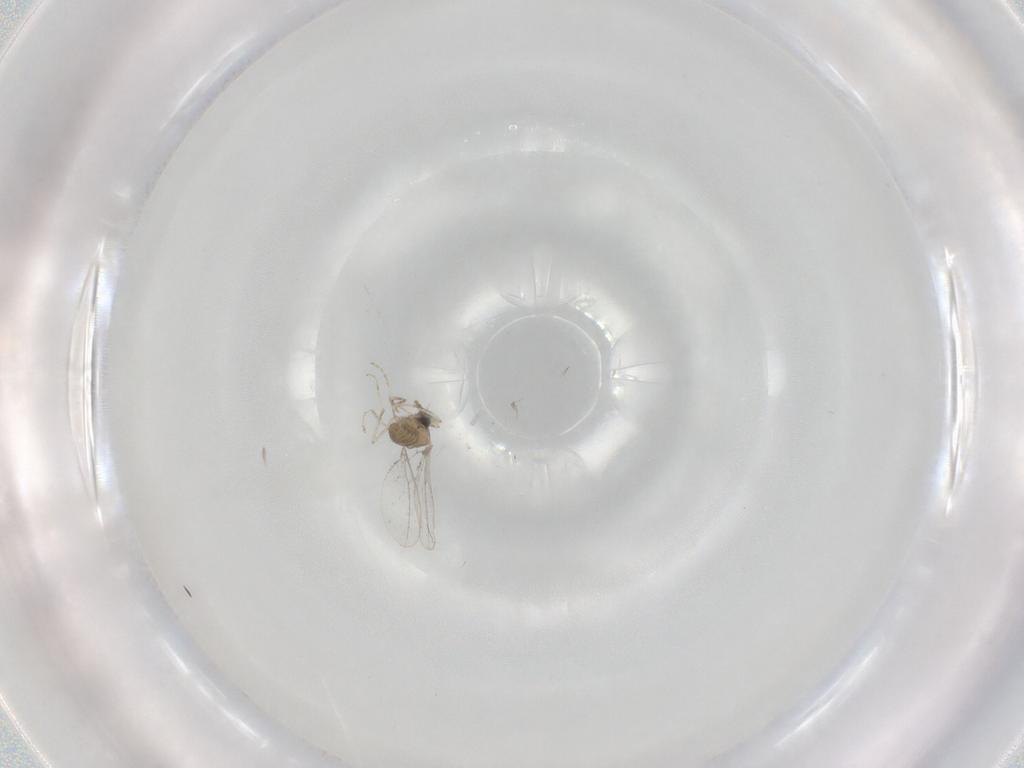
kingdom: Animalia
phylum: Arthropoda
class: Insecta
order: Diptera
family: Cecidomyiidae
